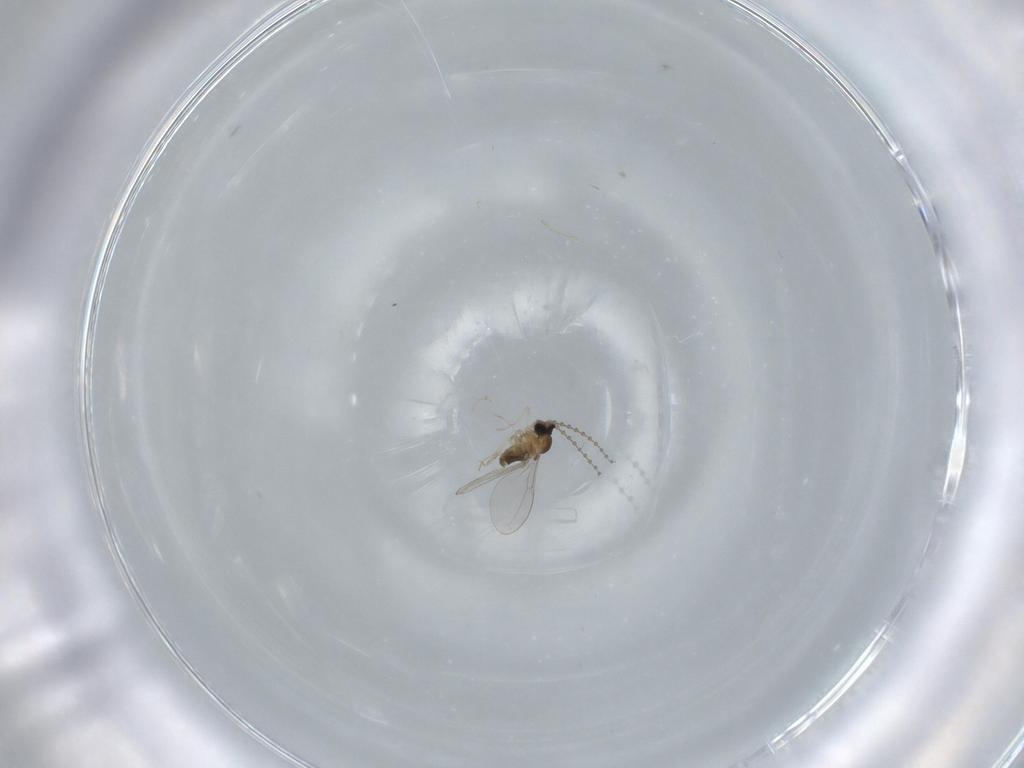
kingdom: Animalia
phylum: Arthropoda
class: Insecta
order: Diptera
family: Cecidomyiidae
